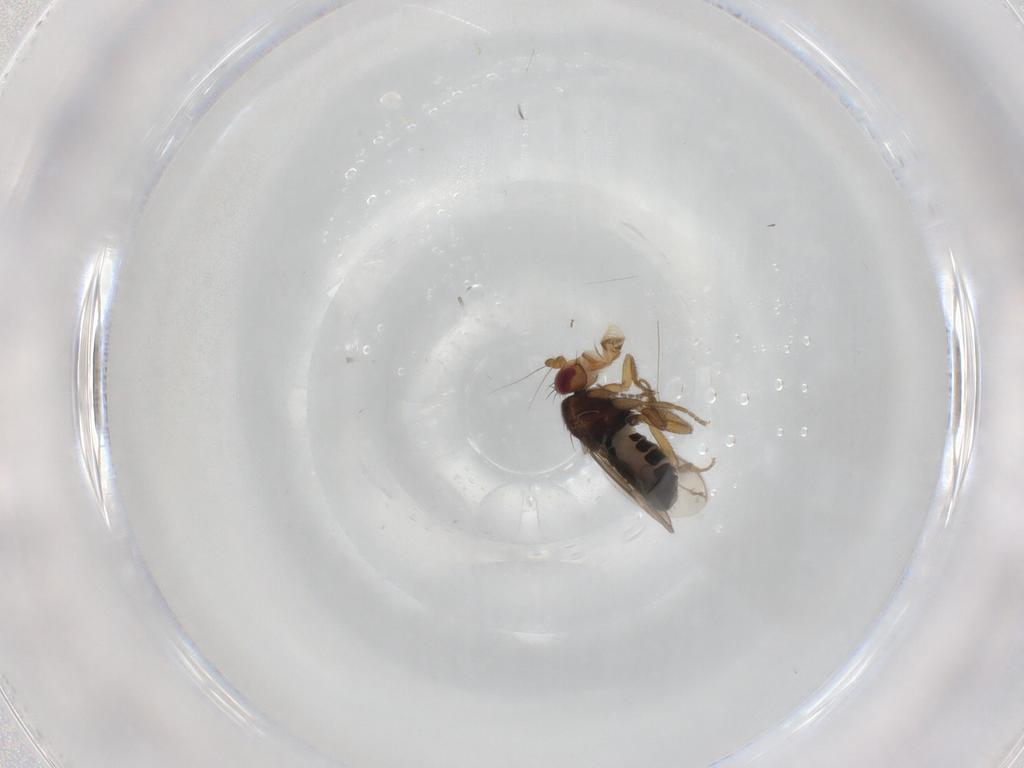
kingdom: Animalia
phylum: Arthropoda
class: Insecta
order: Diptera
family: Sphaeroceridae
